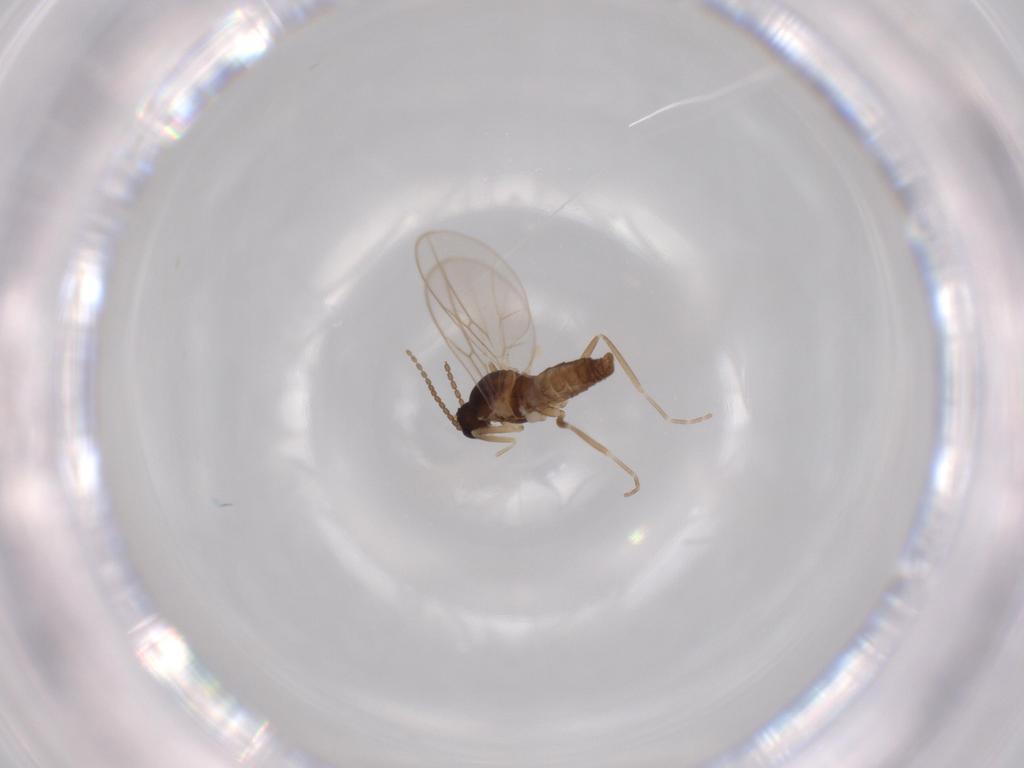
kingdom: Animalia
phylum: Arthropoda
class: Insecta
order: Diptera
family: Cecidomyiidae
